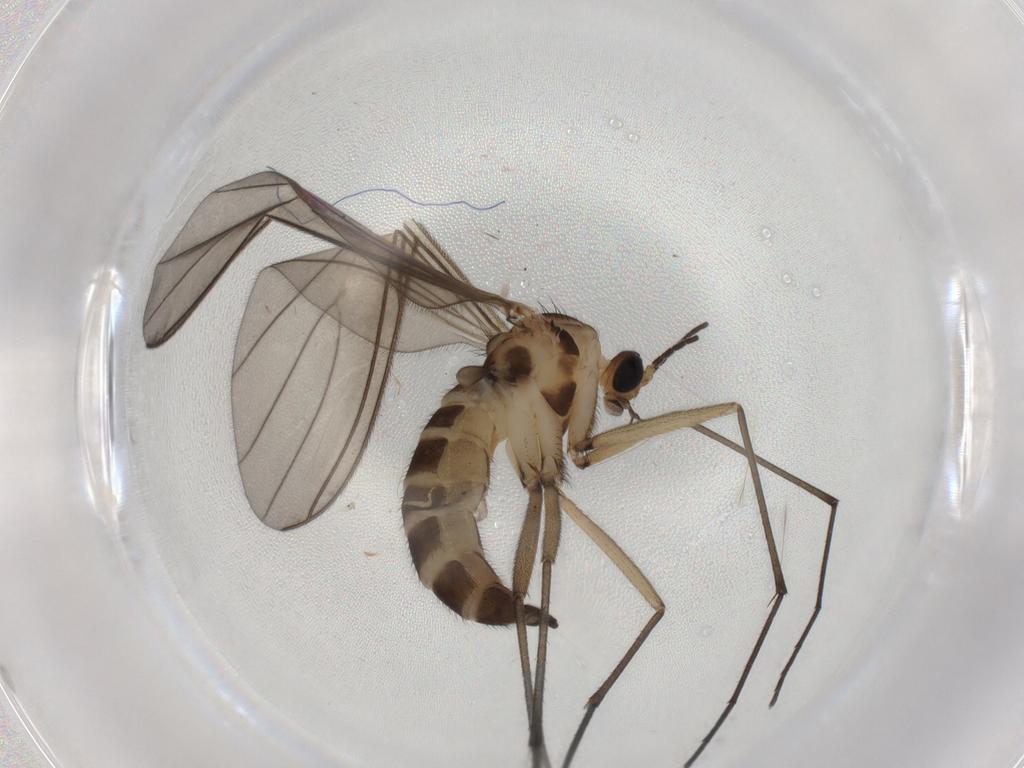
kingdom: Animalia
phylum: Arthropoda
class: Insecta
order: Diptera
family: Sciaridae
